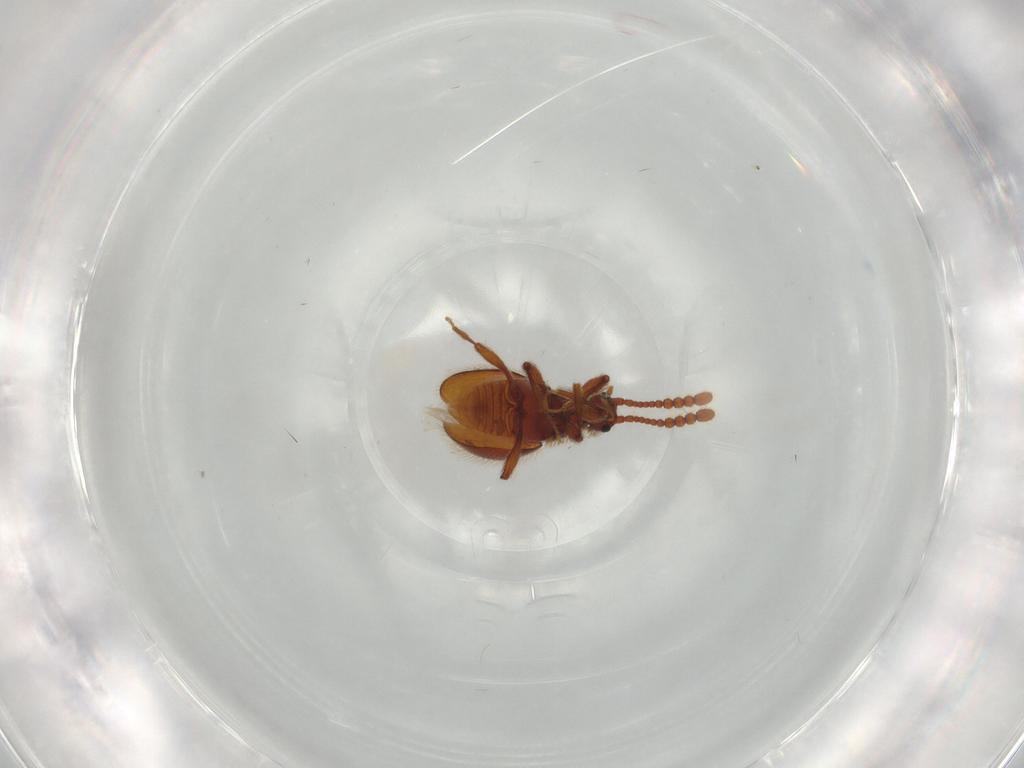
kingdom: Animalia
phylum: Arthropoda
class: Insecta
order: Coleoptera
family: Staphylinidae
